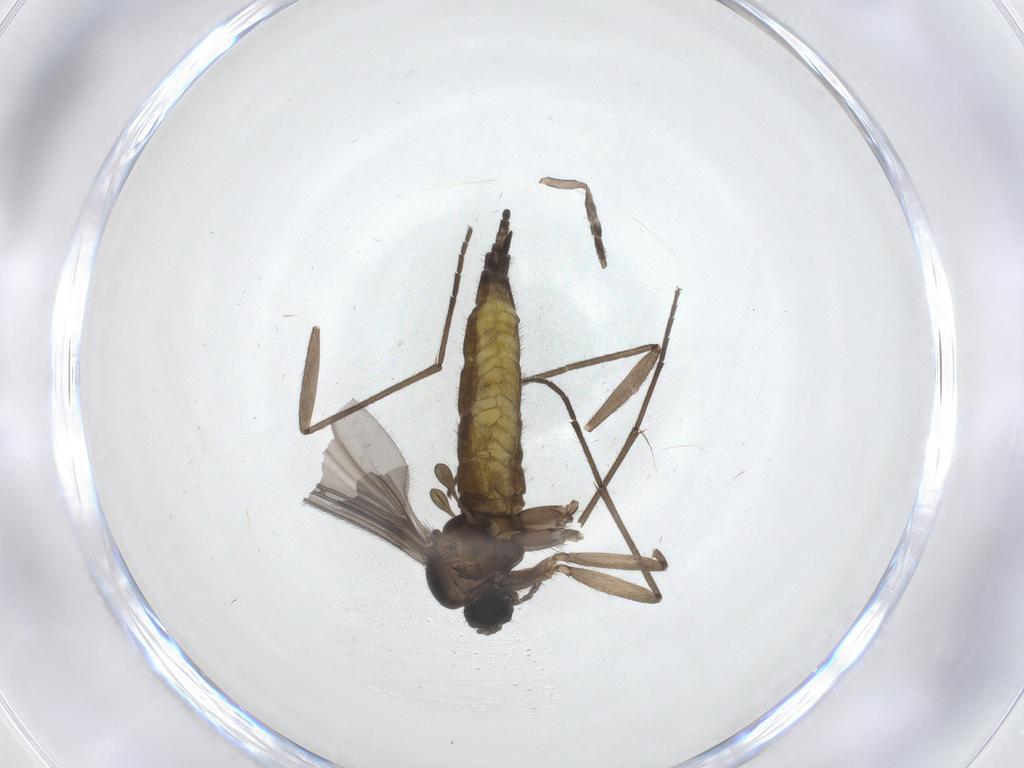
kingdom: Animalia
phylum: Arthropoda
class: Insecta
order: Diptera
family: Sciaridae
